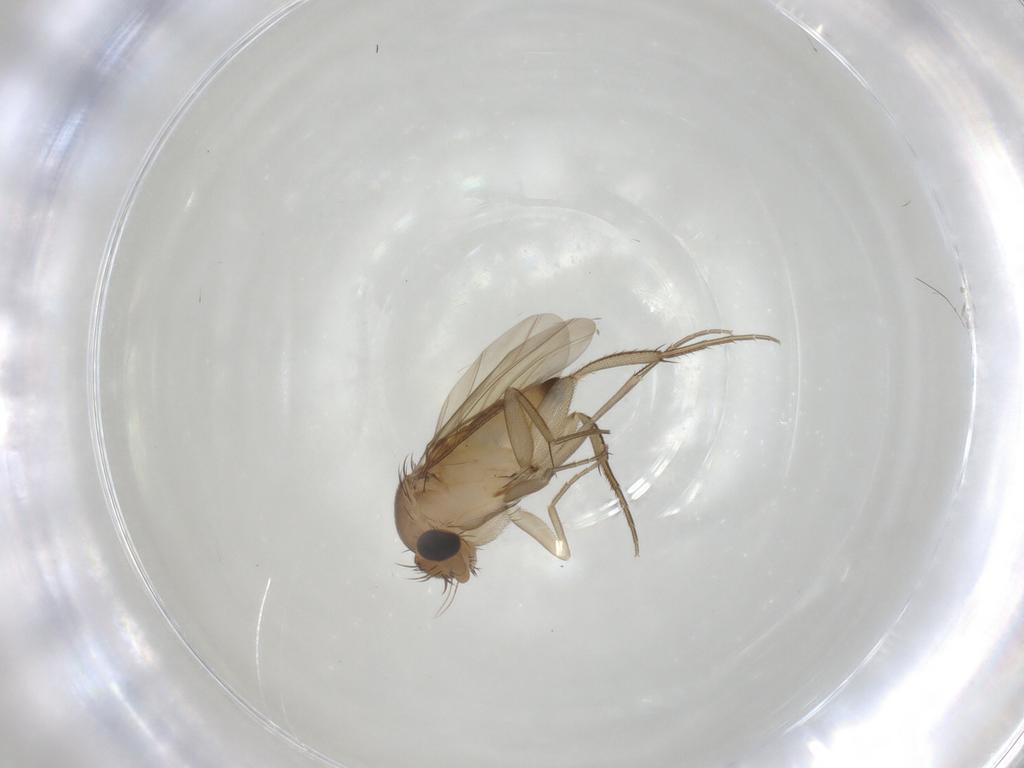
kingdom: Animalia
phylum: Arthropoda
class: Insecta
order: Diptera
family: Phoridae
